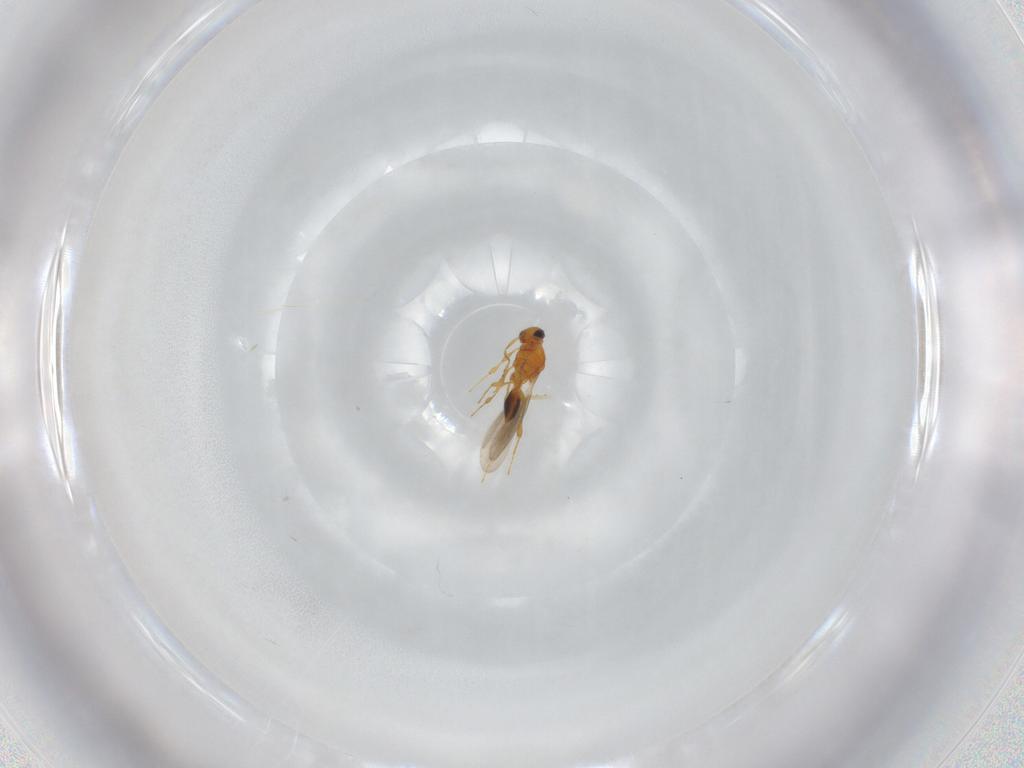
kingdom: Animalia
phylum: Arthropoda
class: Insecta
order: Hymenoptera
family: Platygastridae
